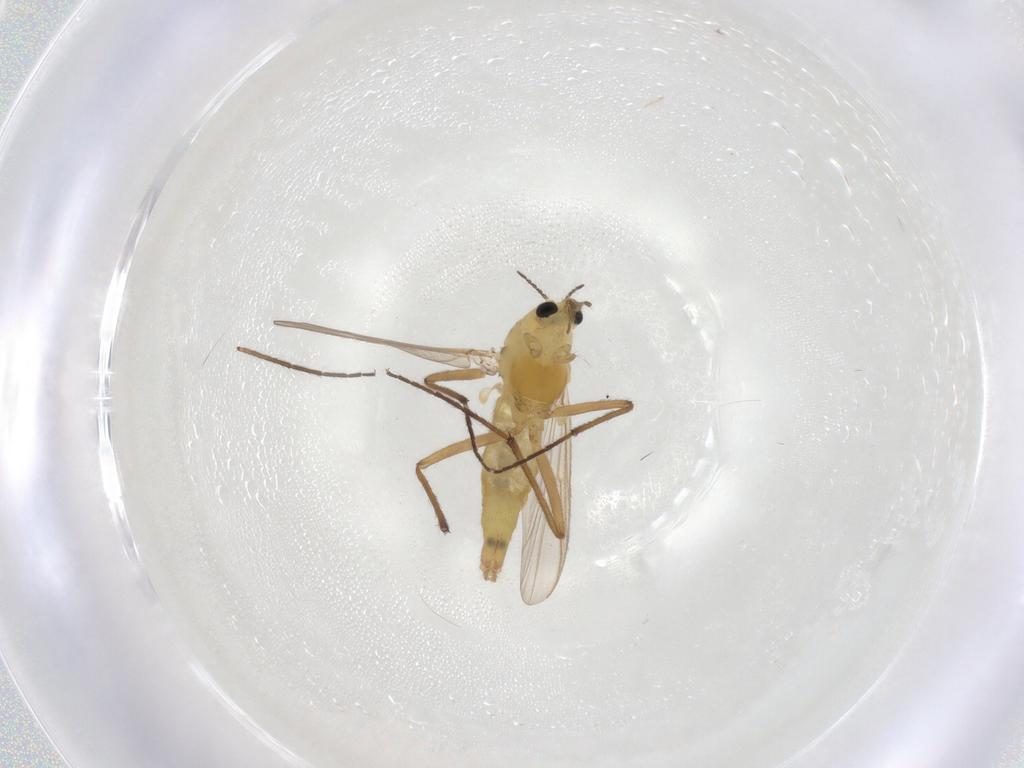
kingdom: Animalia
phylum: Arthropoda
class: Insecta
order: Diptera
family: Chironomidae
